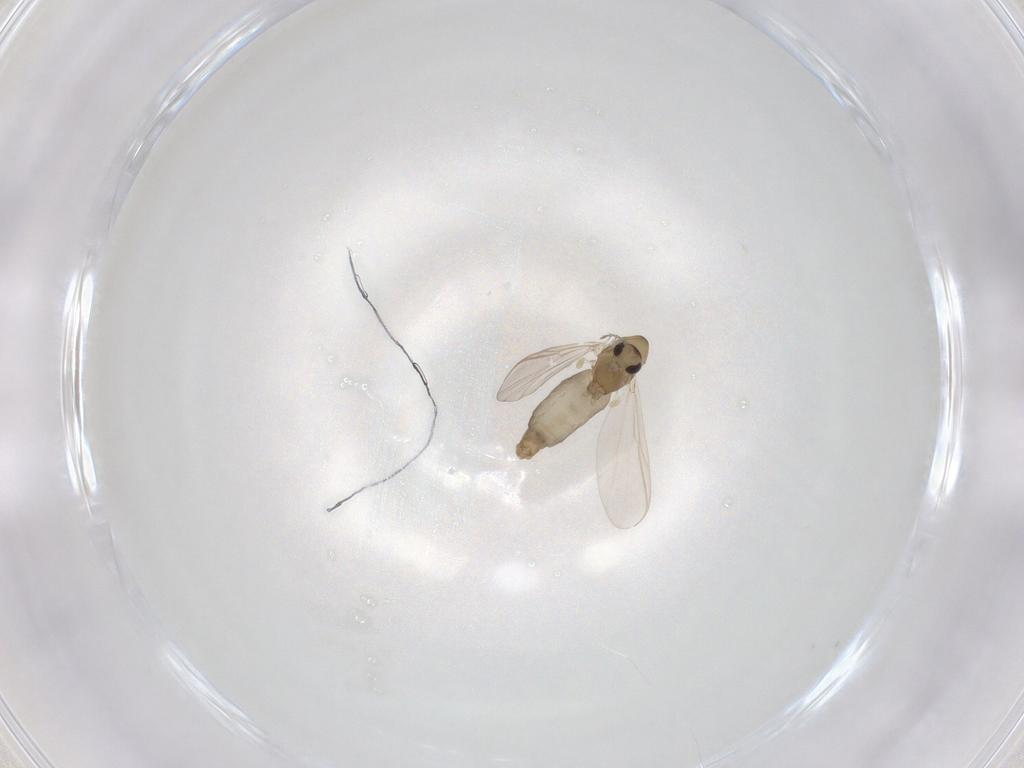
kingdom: Animalia
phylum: Arthropoda
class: Insecta
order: Diptera
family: Chironomidae
